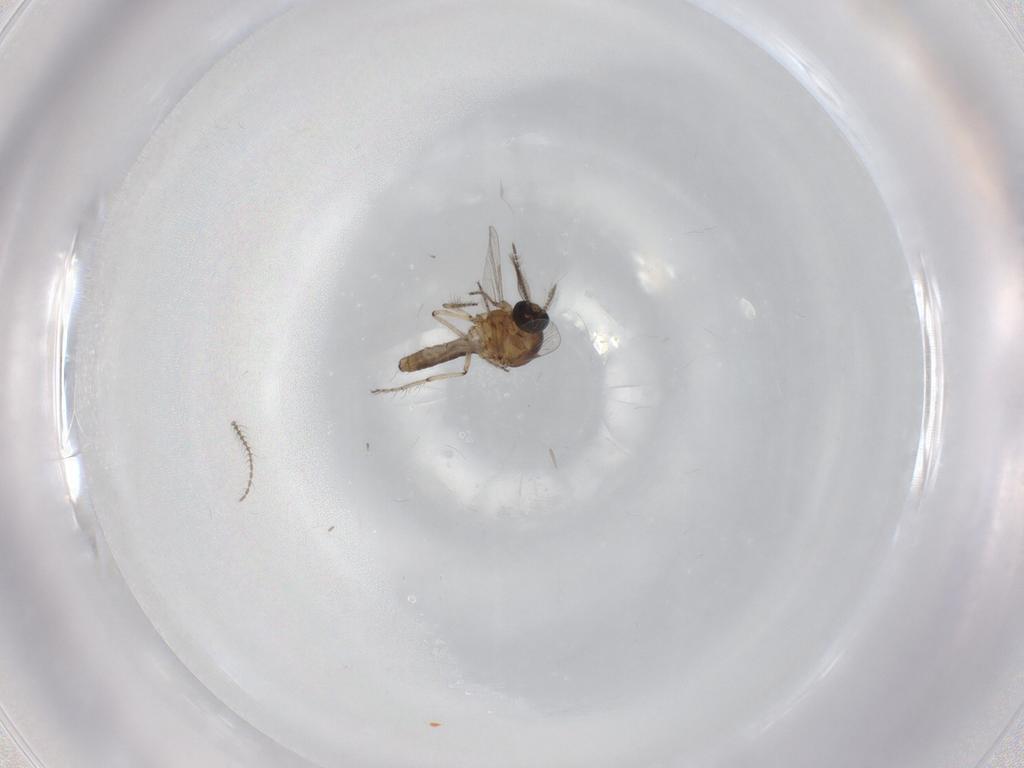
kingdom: Animalia
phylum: Arthropoda
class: Insecta
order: Diptera
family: Ceratopogonidae
